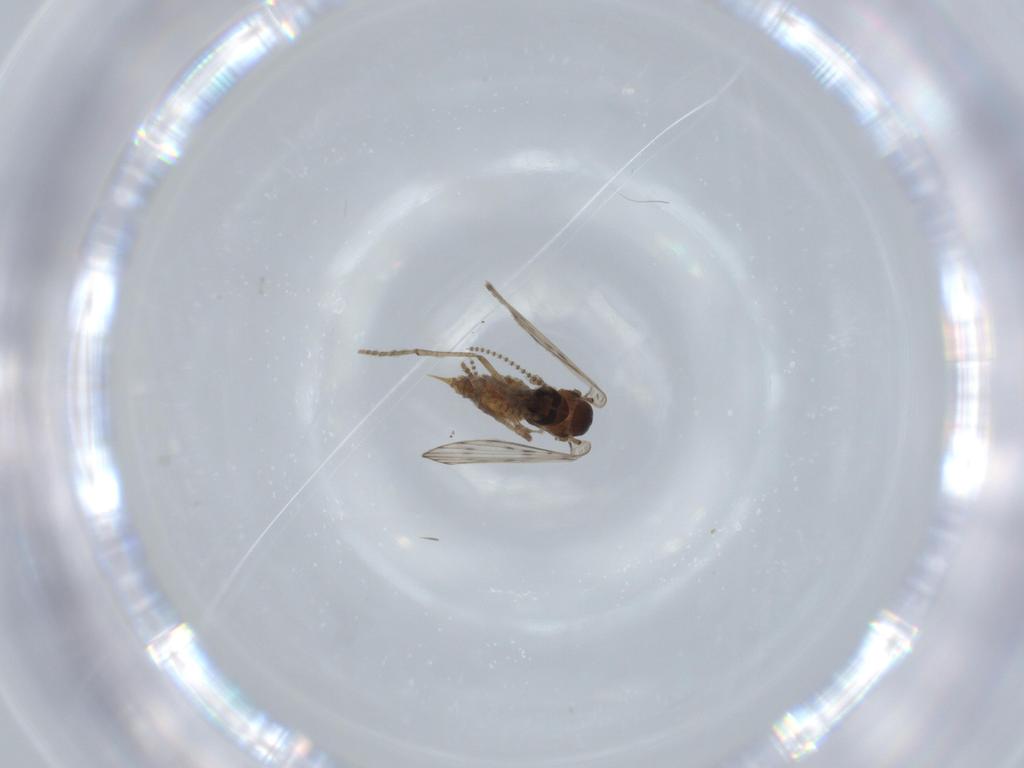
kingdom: Animalia
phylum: Arthropoda
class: Insecta
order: Diptera
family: Psychodidae
